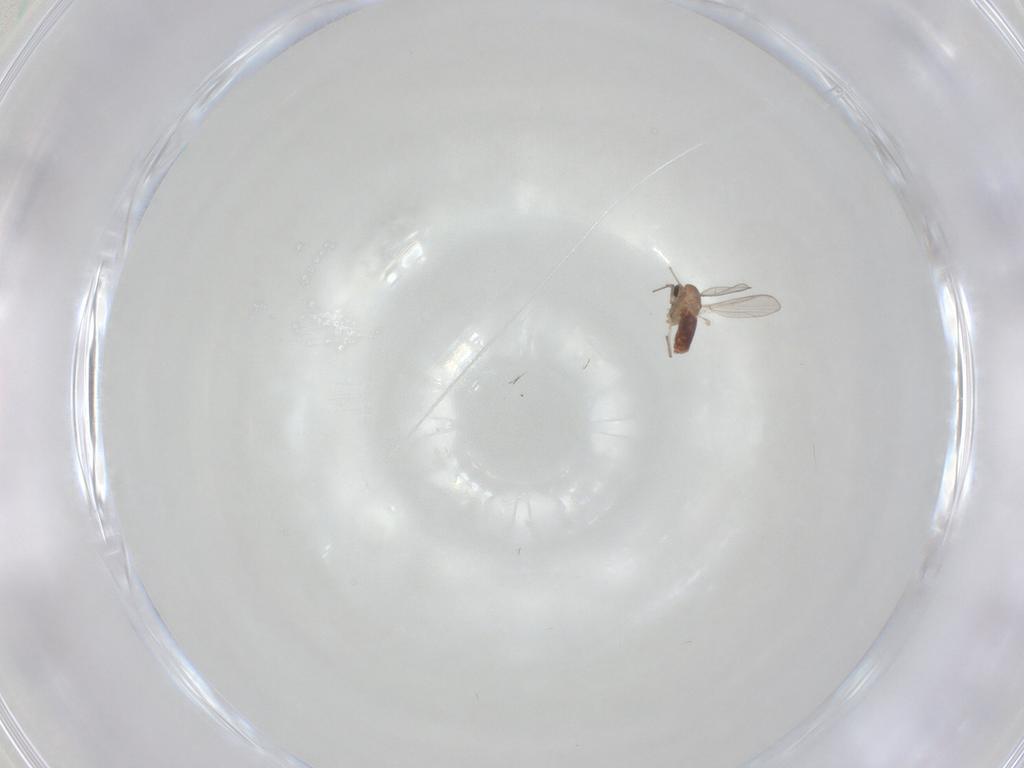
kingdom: Animalia
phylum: Arthropoda
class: Insecta
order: Diptera
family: Chironomidae
